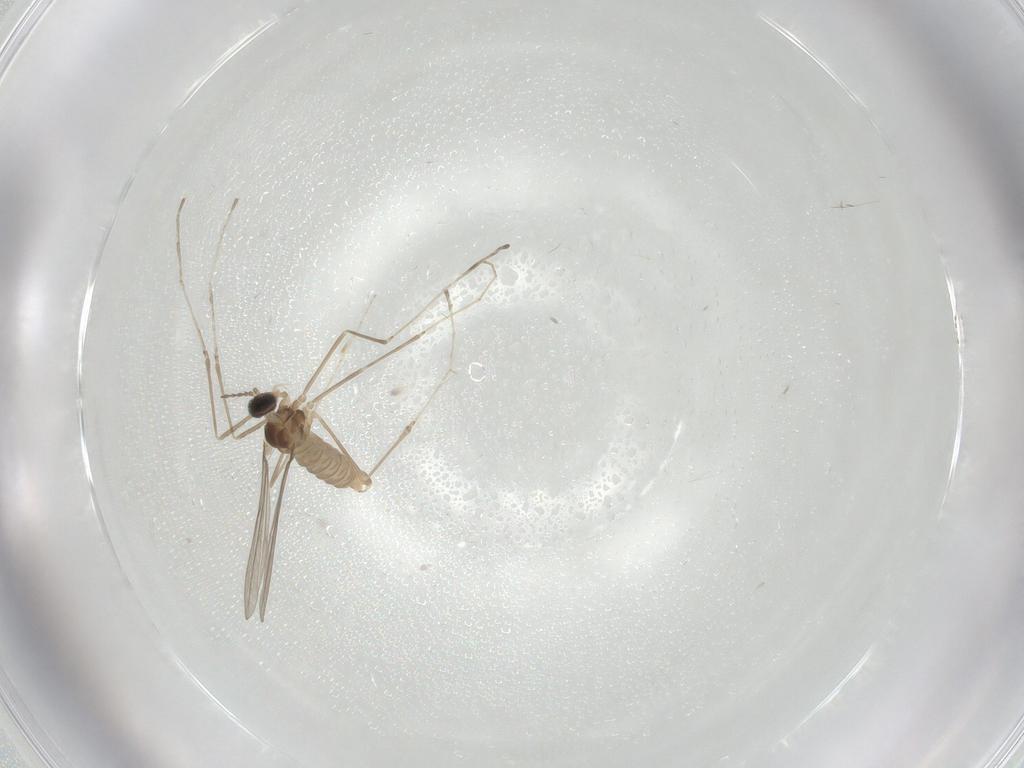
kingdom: Animalia
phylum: Arthropoda
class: Insecta
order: Diptera
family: Cecidomyiidae
